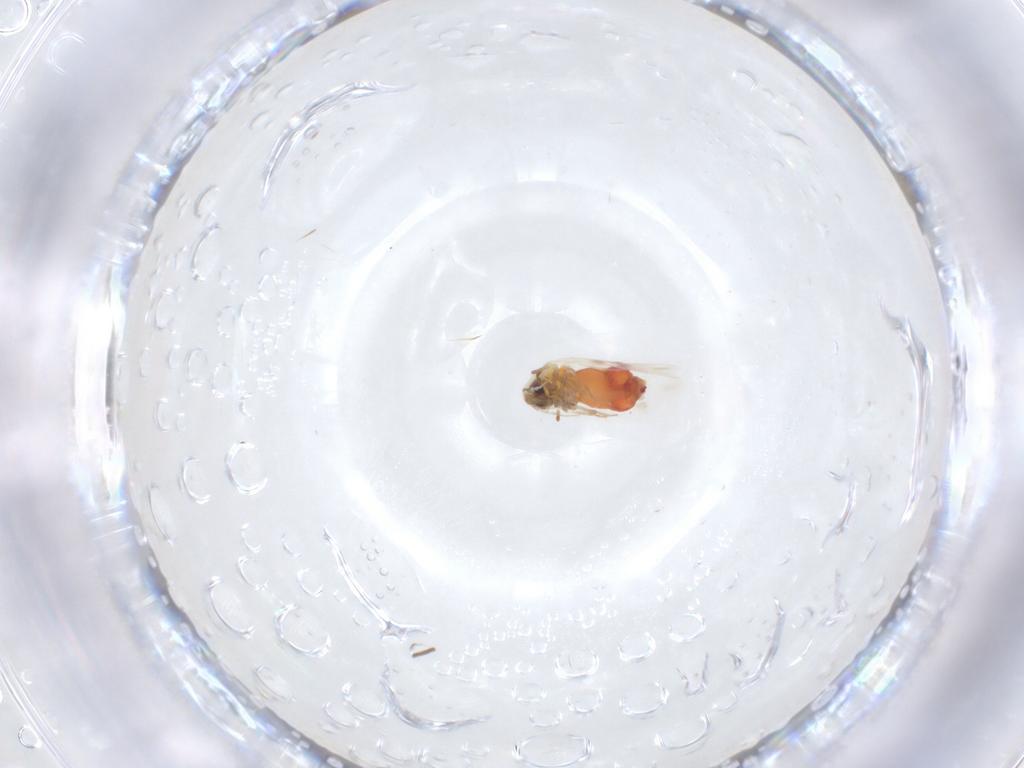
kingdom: Animalia
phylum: Arthropoda
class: Insecta
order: Hemiptera
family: Aleyrodidae
